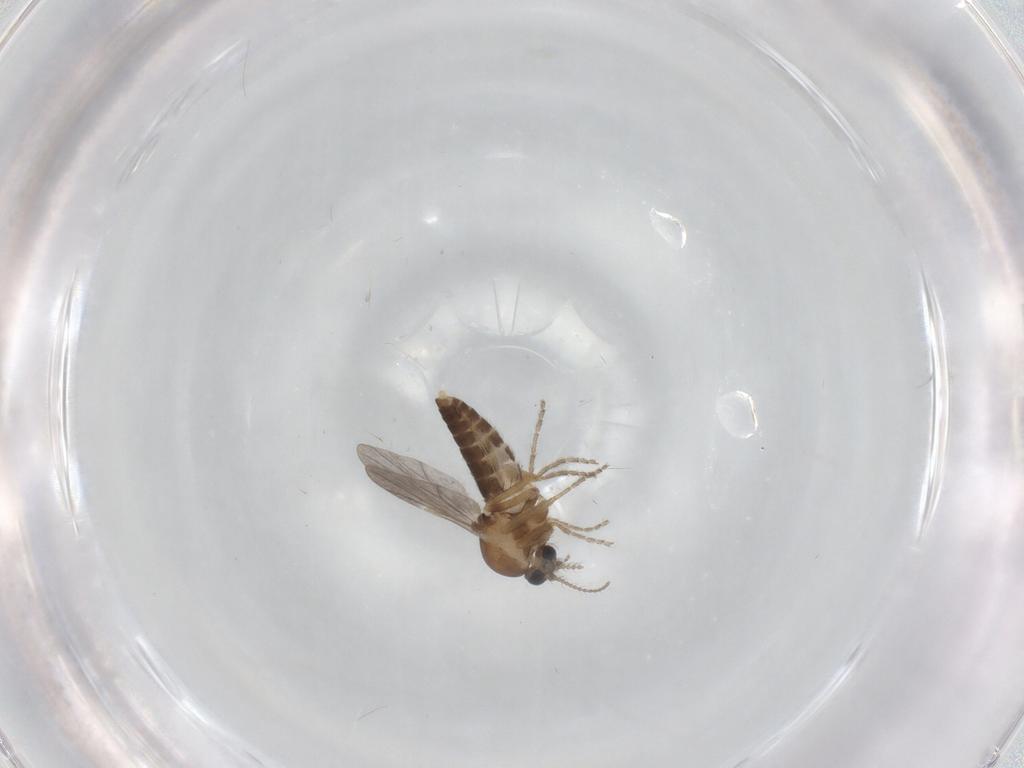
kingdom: Animalia
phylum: Arthropoda
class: Insecta
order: Diptera
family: Ceratopogonidae
